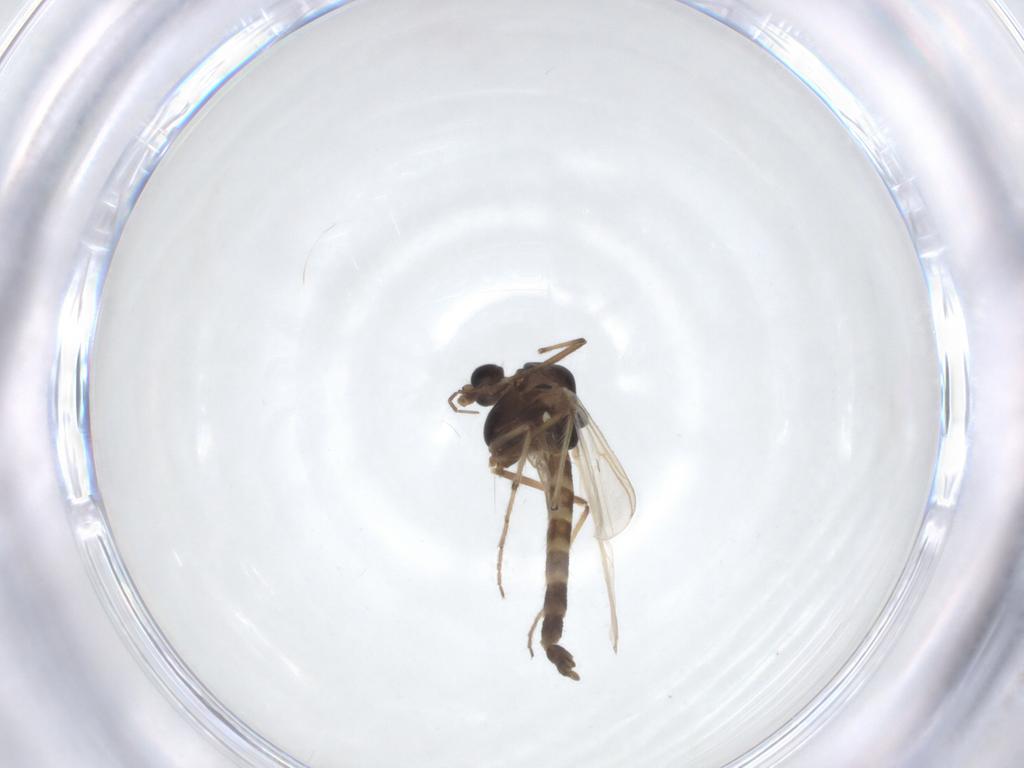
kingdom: Animalia
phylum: Arthropoda
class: Insecta
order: Diptera
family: Chironomidae
